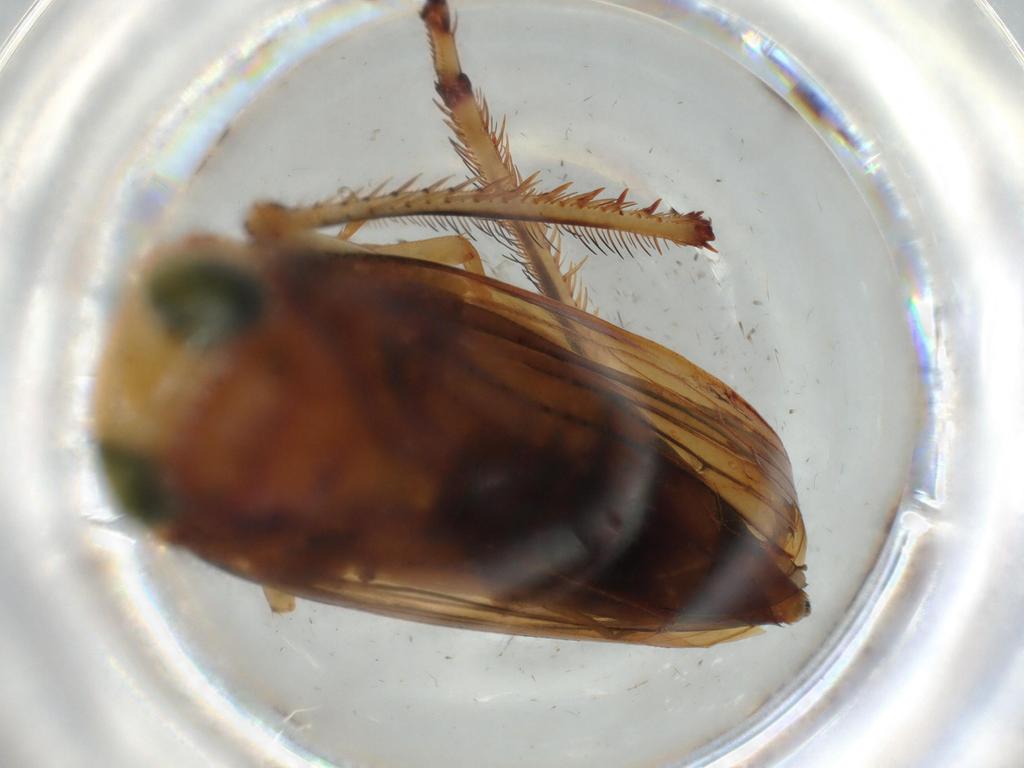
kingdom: Animalia
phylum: Arthropoda
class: Insecta
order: Hemiptera
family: Cicadellidae
